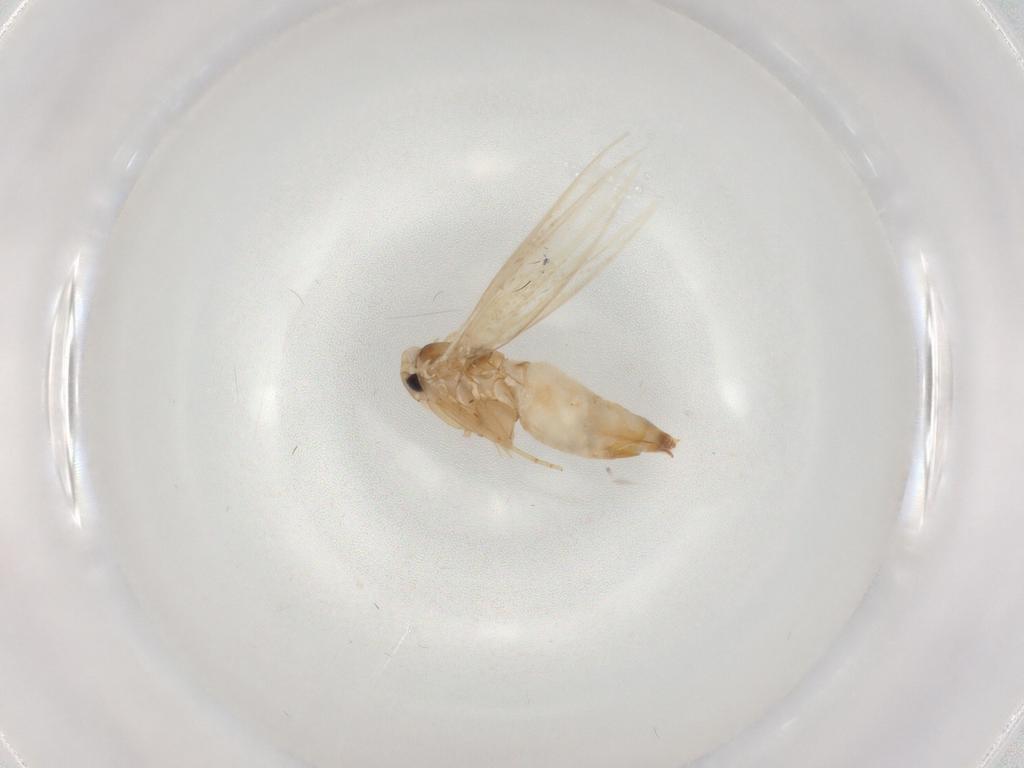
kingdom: Animalia
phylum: Arthropoda
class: Insecta
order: Lepidoptera
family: Bucculatricidae
